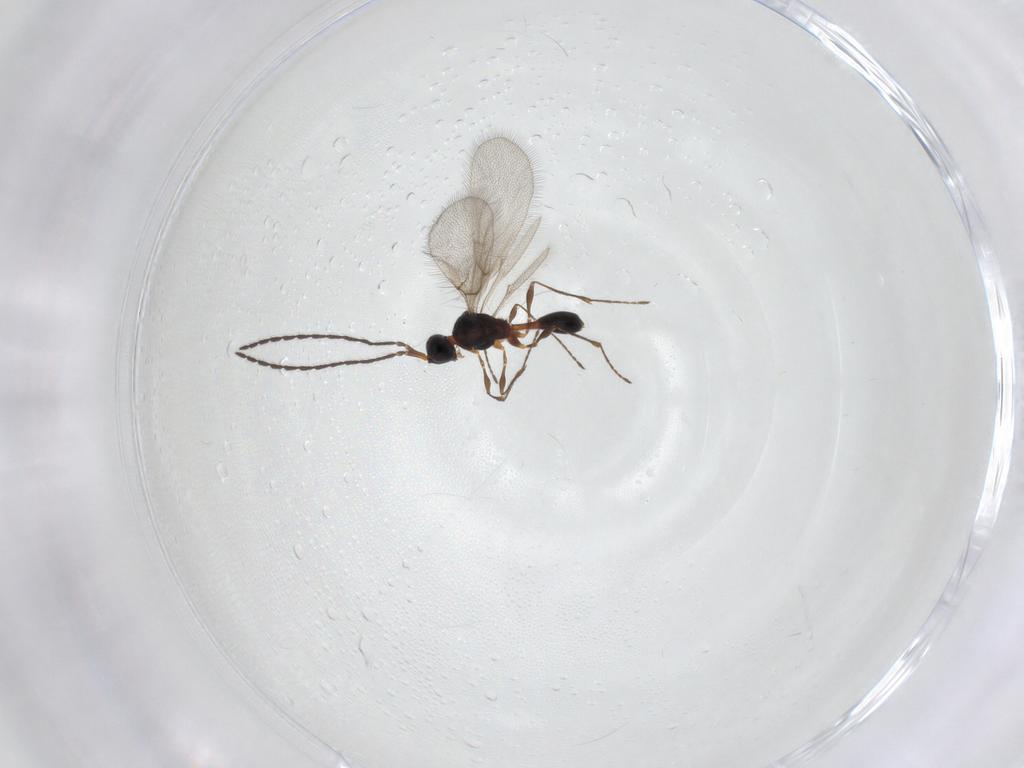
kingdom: Animalia
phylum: Arthropoda
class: Insecta
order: Hymenoptera
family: Diapriidae
